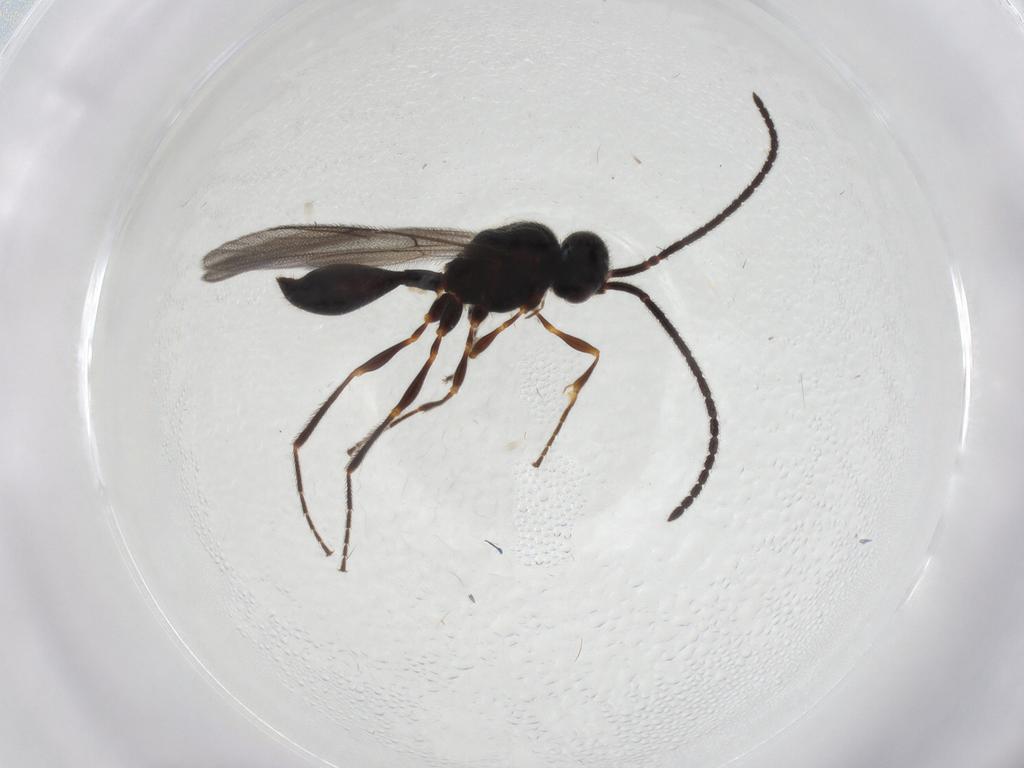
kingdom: Animalia
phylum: Arthropoda
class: Insecta
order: Hymenoptera
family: Diapriidae
